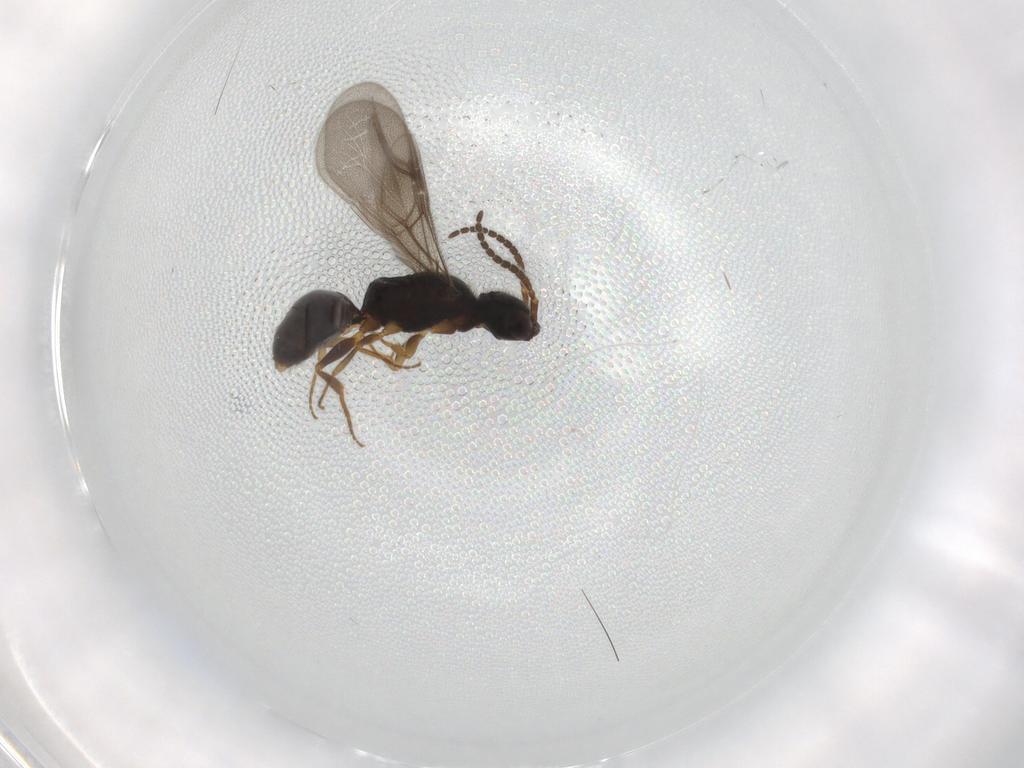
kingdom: Animalia
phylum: Arthropoda
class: Insecta
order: Hymenoptera
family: Bethylidae
